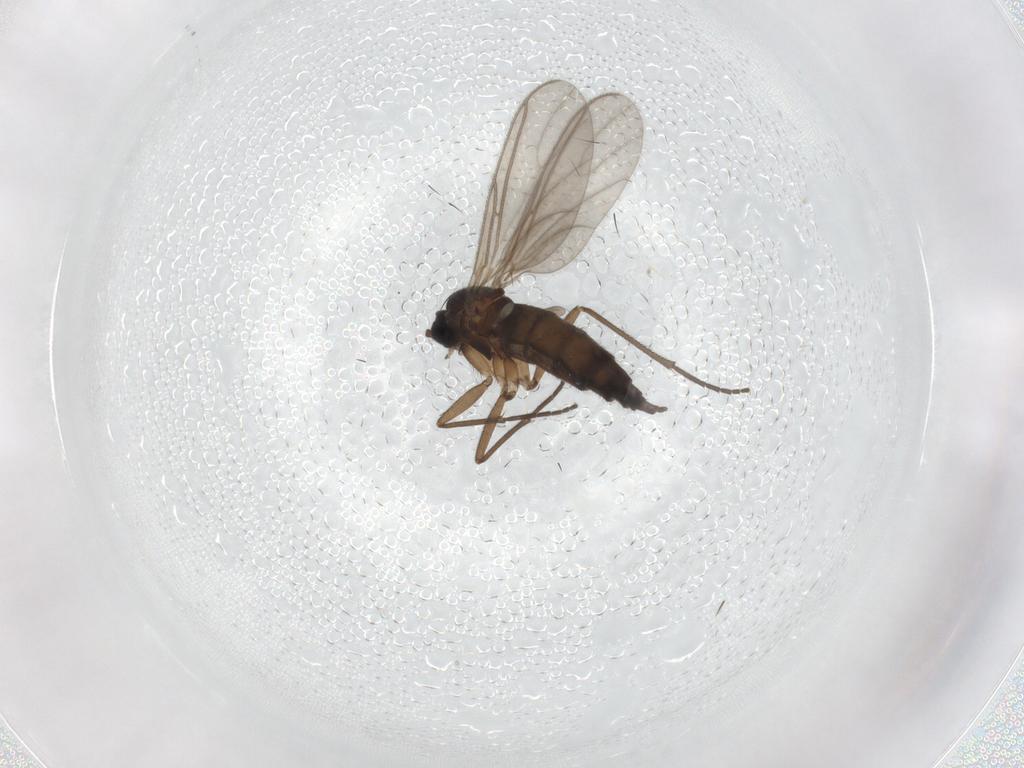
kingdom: Animalia
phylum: Arthropoda
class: Insecta
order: Diptera
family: Sciaridae
